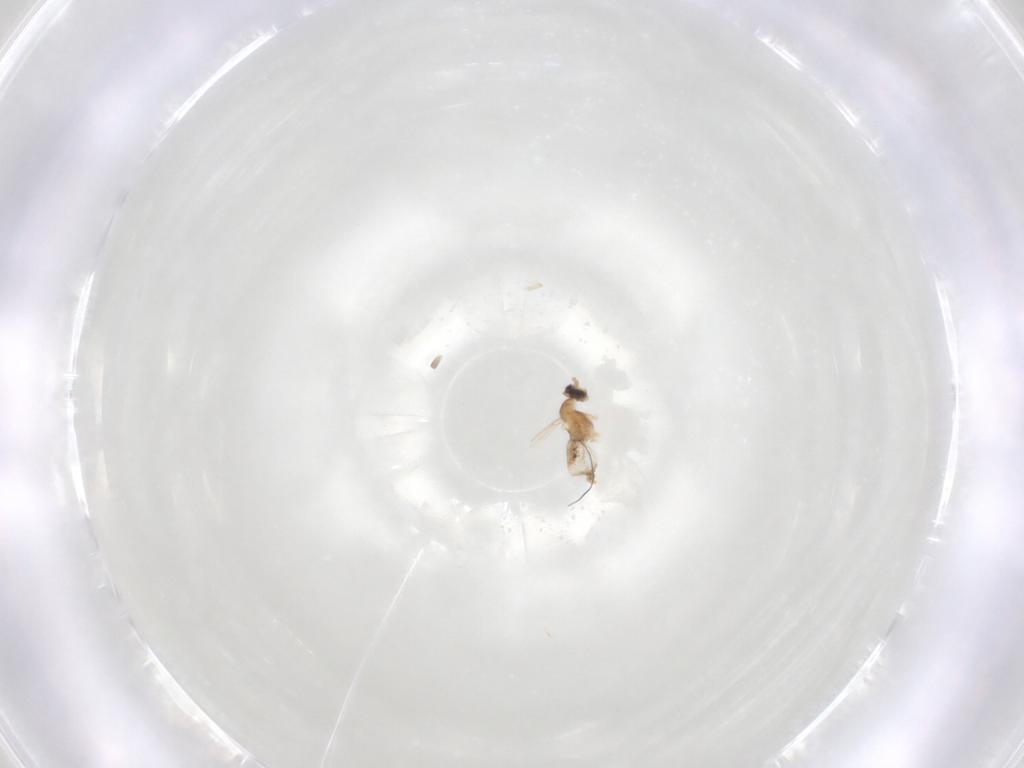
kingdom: Animalia
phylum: Arthropoda
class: Insecta
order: Diptera
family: Cecidomyiidae
